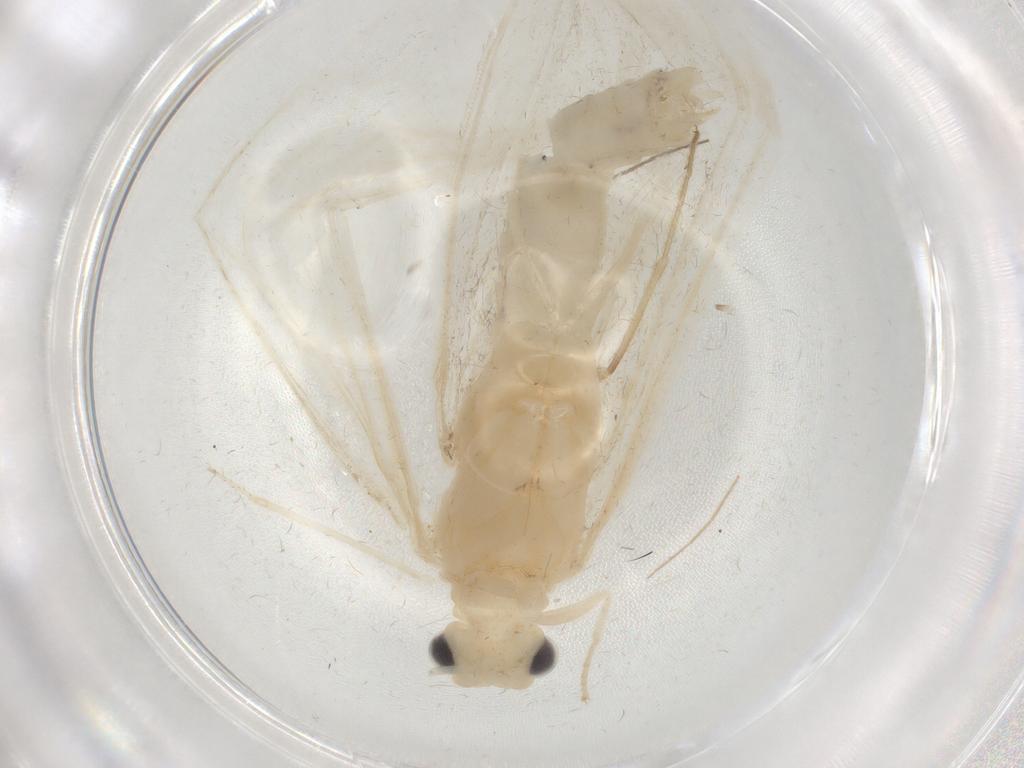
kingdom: Animalia
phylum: Arthropoda
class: Insecta
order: Trichoptera
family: Leptoceridae
